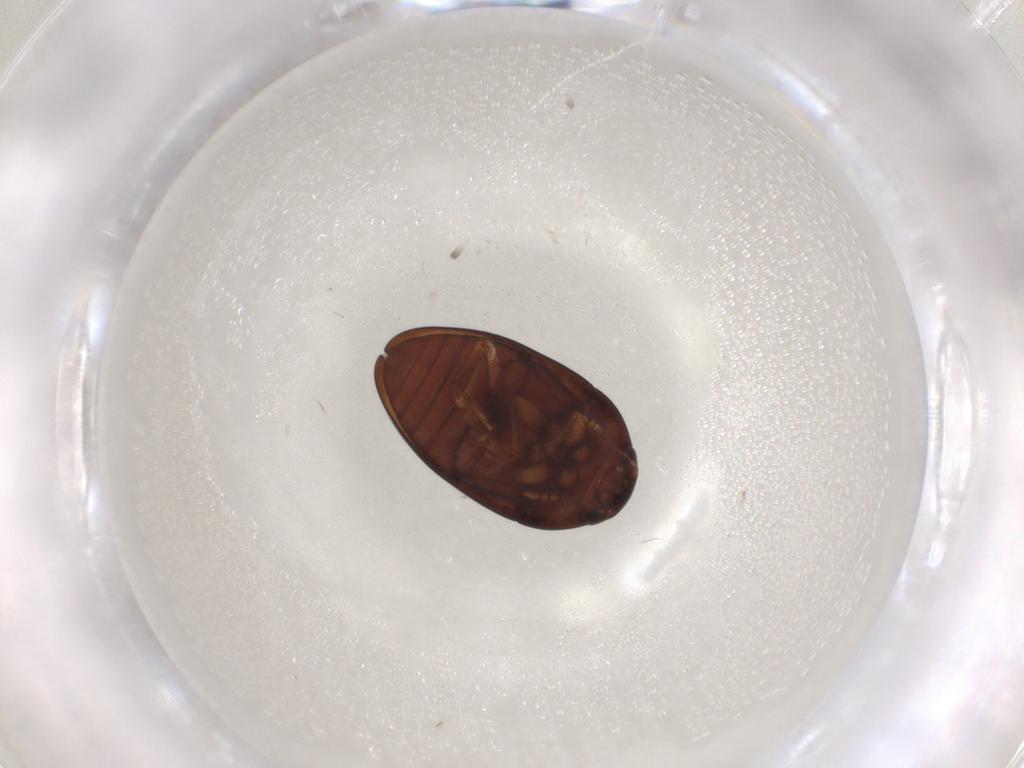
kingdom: Animalia
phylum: Arthropoda
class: Insecta
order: Coleoptera
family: Phalacridae
